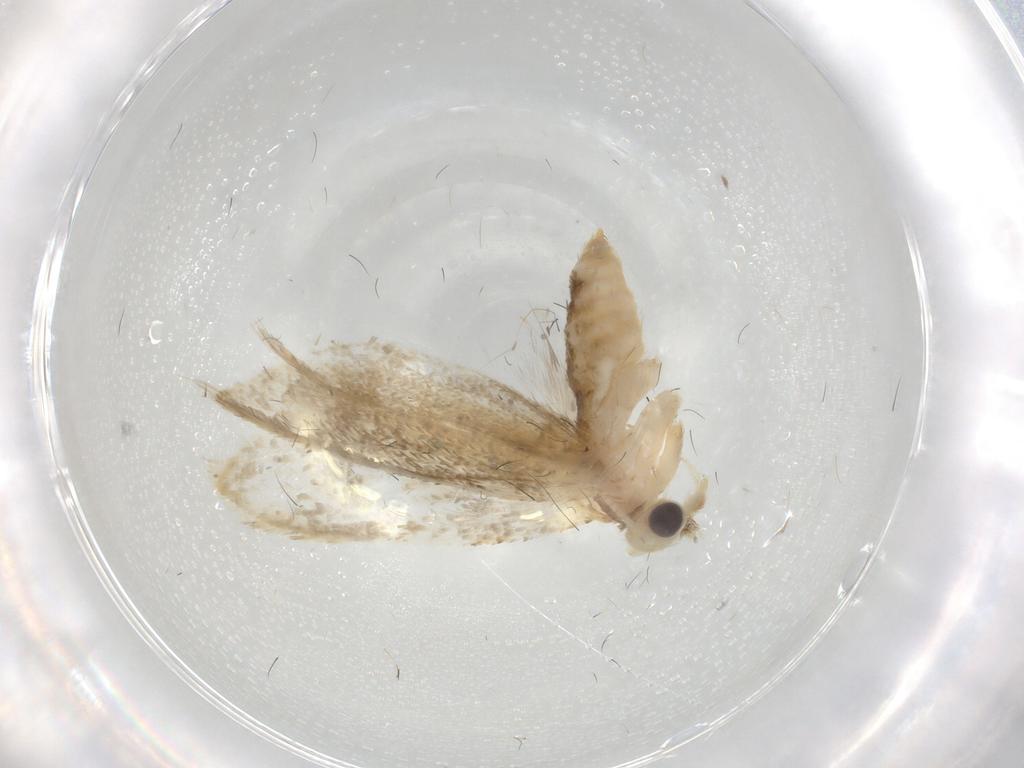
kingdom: Animalia
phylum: Arthropoda
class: Insecta
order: Lepidoptera
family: Tortricidae
